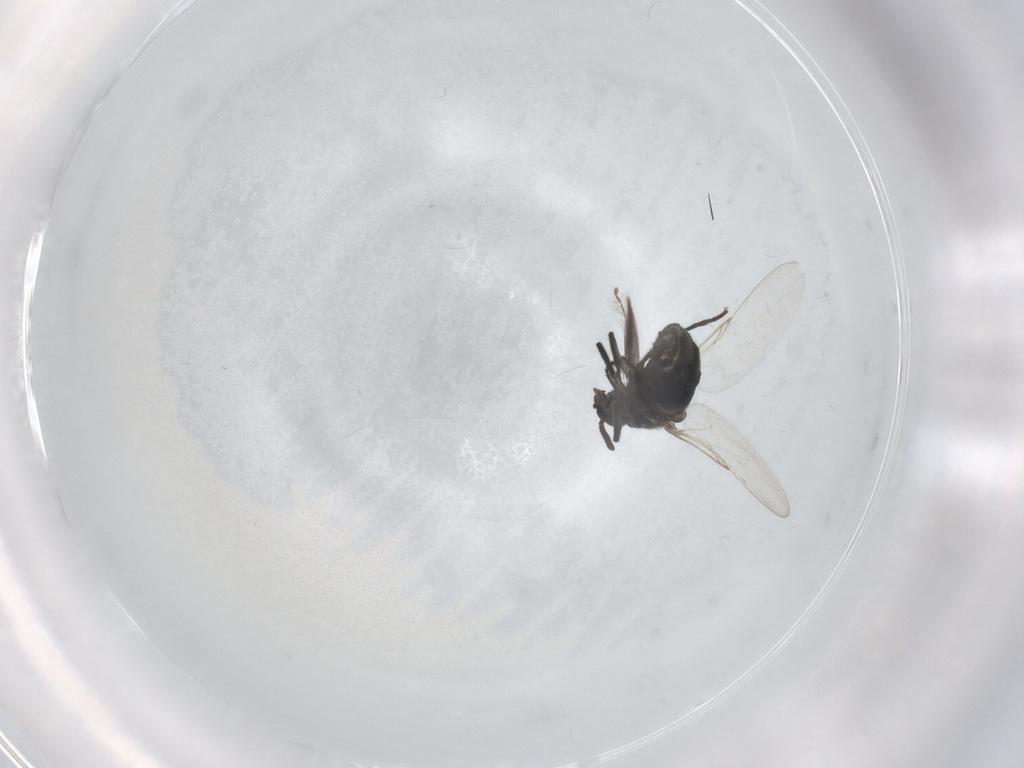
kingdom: Animalia
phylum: Arthropoda
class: Insecta
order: Diptera
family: Scatopsidae
